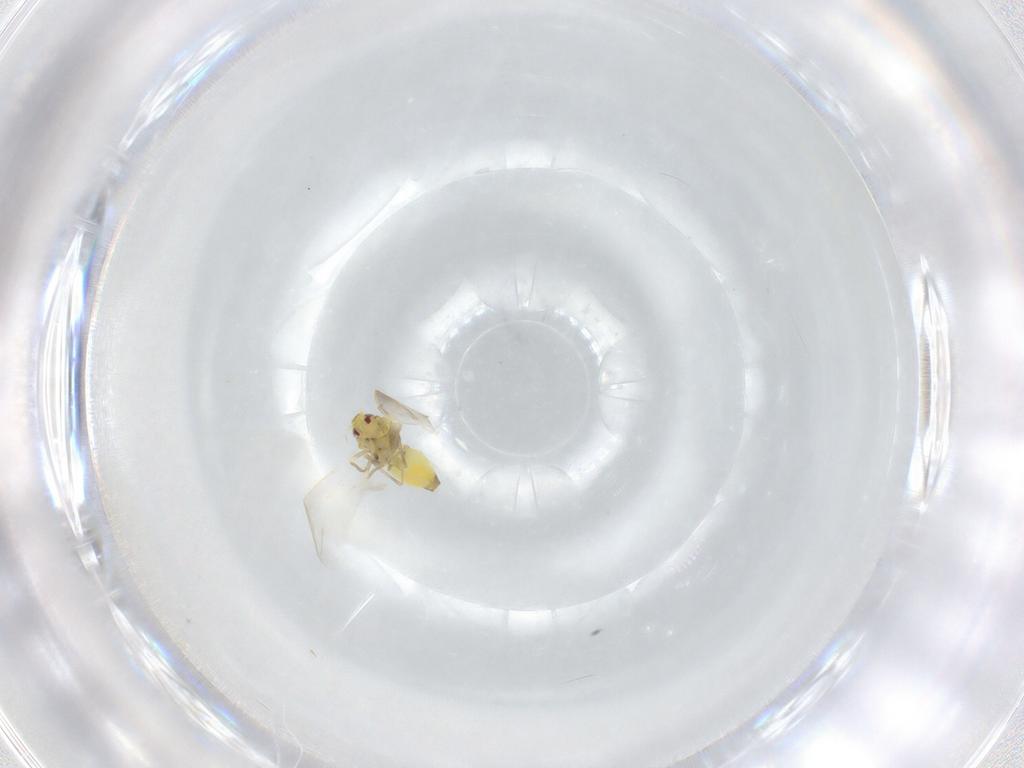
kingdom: Animalia
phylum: Arthropoda
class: Insecta
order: Hemiptera
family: Aleyrodidae
